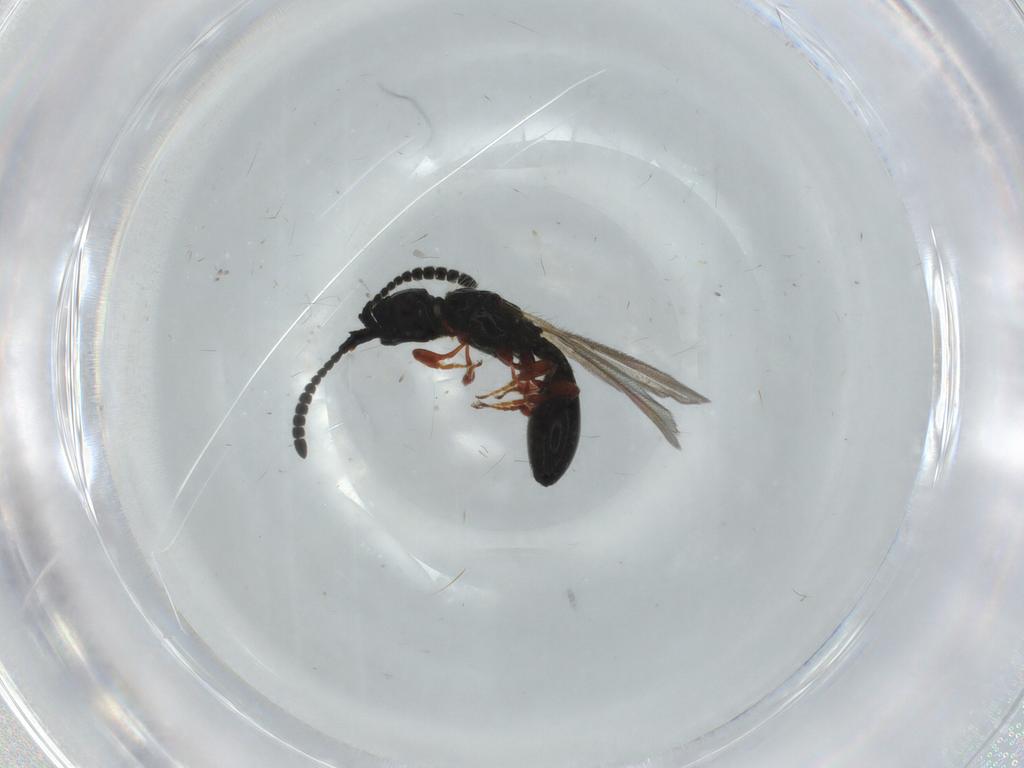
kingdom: Animalia
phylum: Arthropoda
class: Insecta
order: Hymenoptera
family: Diapriidae
